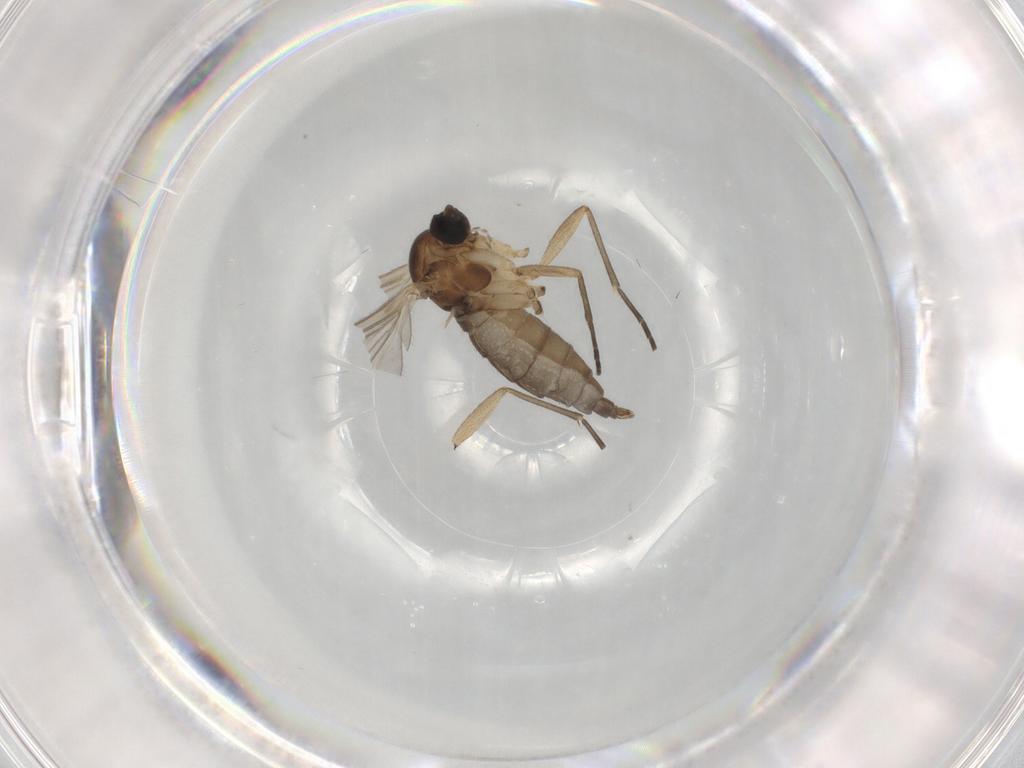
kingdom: Animalia
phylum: Arthropoda
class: Insecta
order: Diptera
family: Sciaridae
